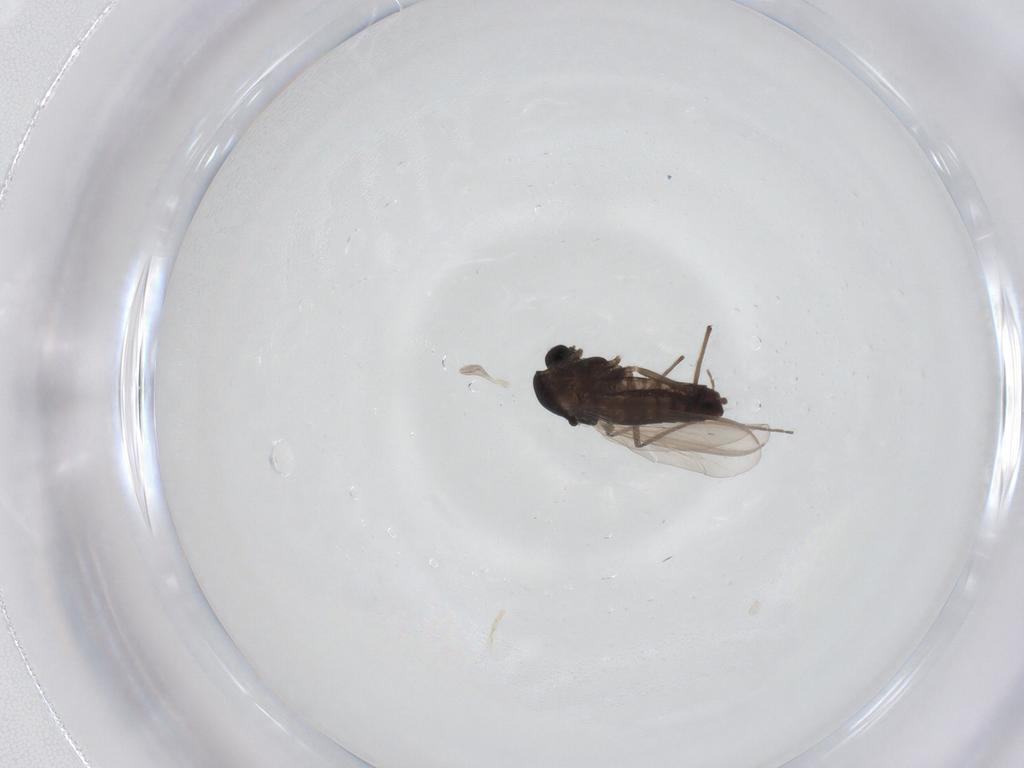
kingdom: Animalia
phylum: Arthropoda
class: Insecta
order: Diptera
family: Chironomidae
